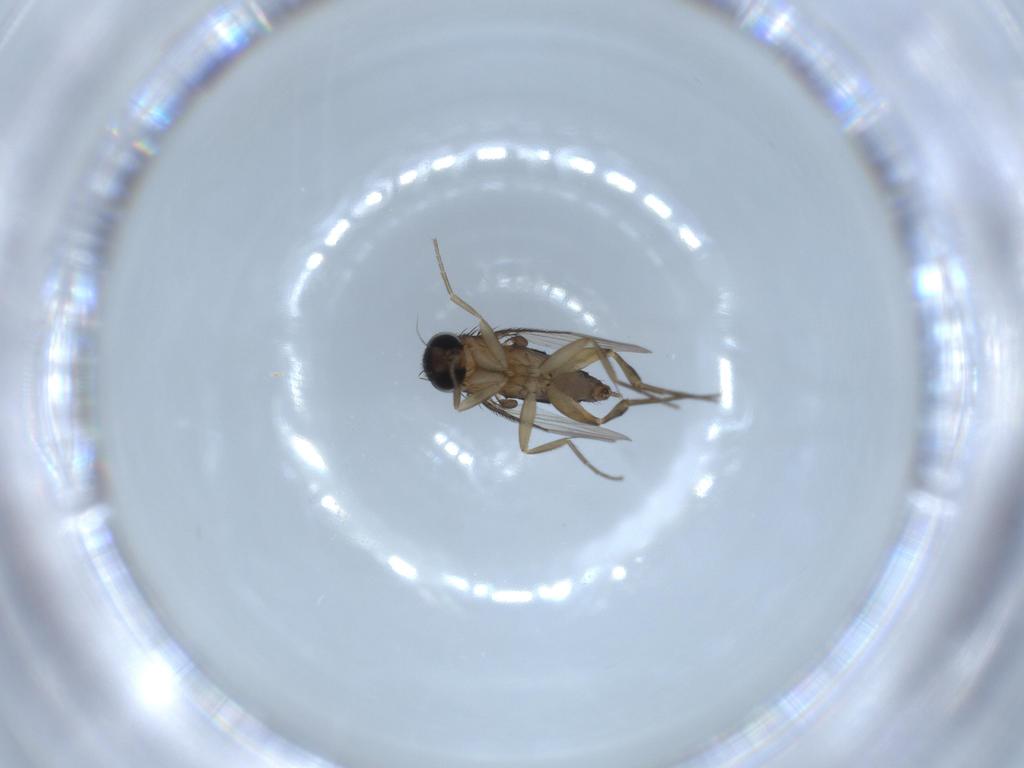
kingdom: Animalia
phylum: Arthropoda
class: Insecta
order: Diptera
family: Phoridae
